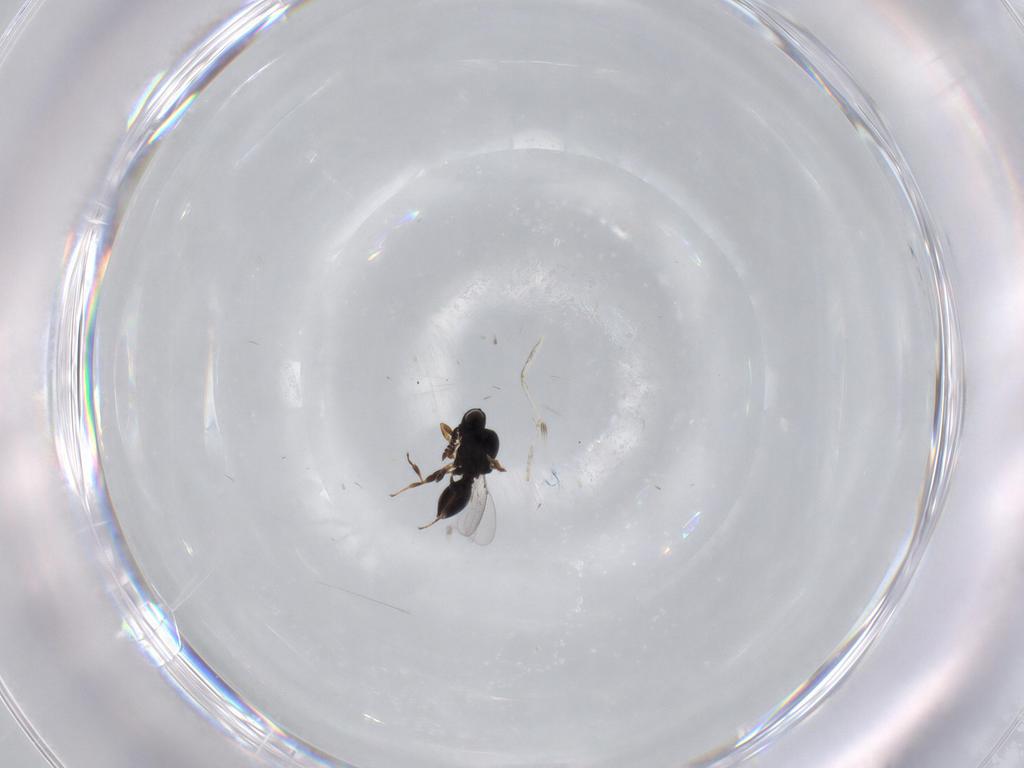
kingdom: Animalia
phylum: Arthropoda
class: Insecta
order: Hymenoptera
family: Platygastridae
